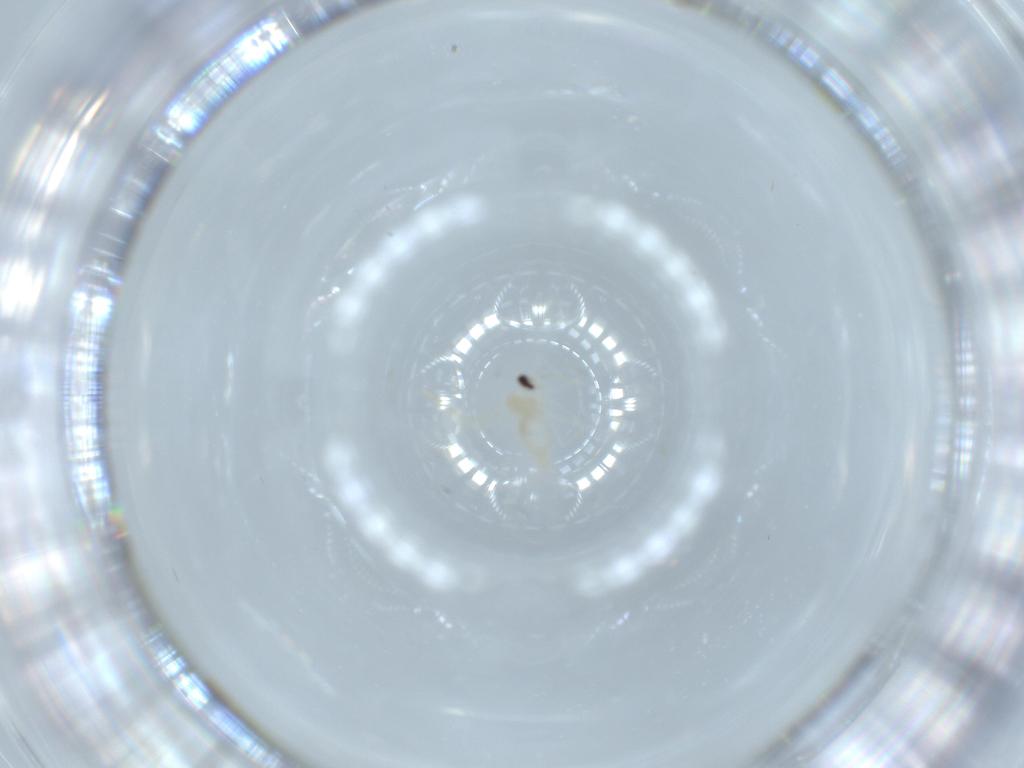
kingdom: Animalia
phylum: Arthropoda
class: Insecta
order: Diptera
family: Cecidomyiidae
